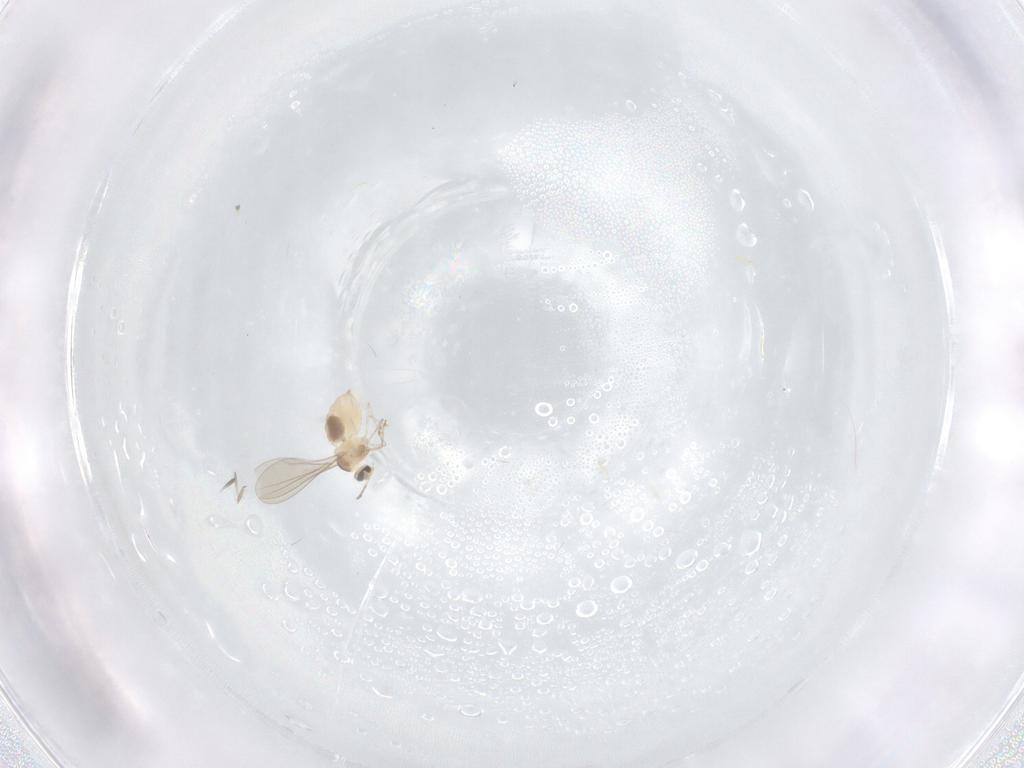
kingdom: Animalia
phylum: Arthropoda
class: Insecta
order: Diptera
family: Cecidomyiidae
